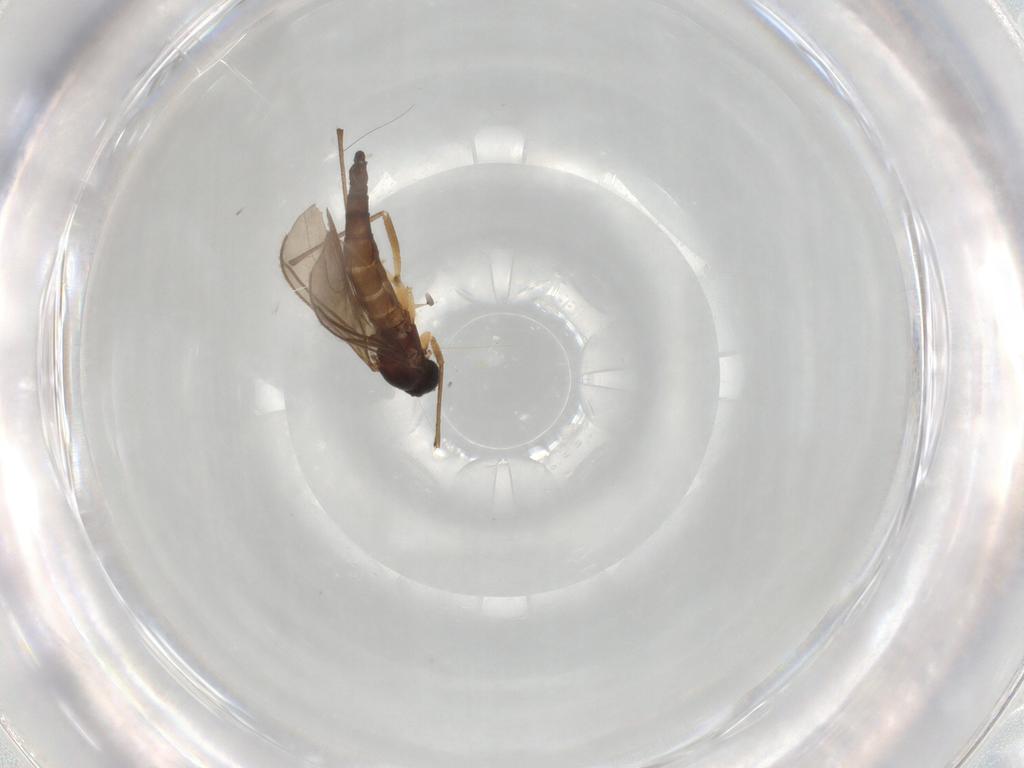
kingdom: Animalia
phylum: Arthropoda
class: Insecta
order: Diptera
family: Sciaridae
